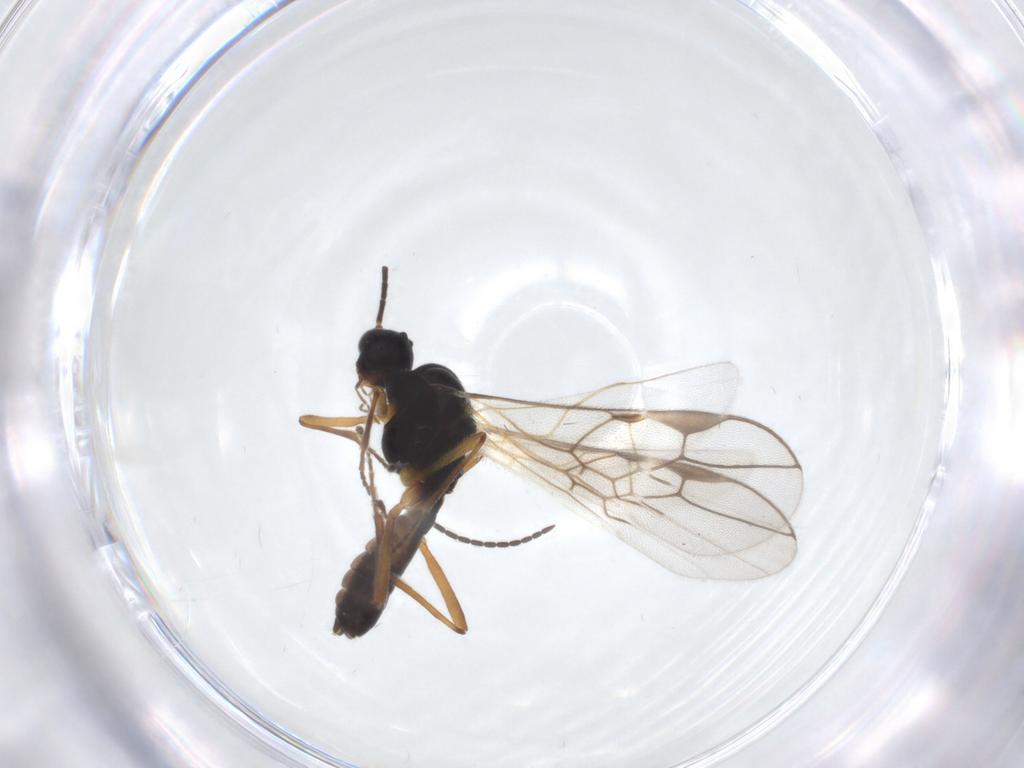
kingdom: Animalia
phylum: Arthropoda
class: Insecta
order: Hymenoptera
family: Braconidae
